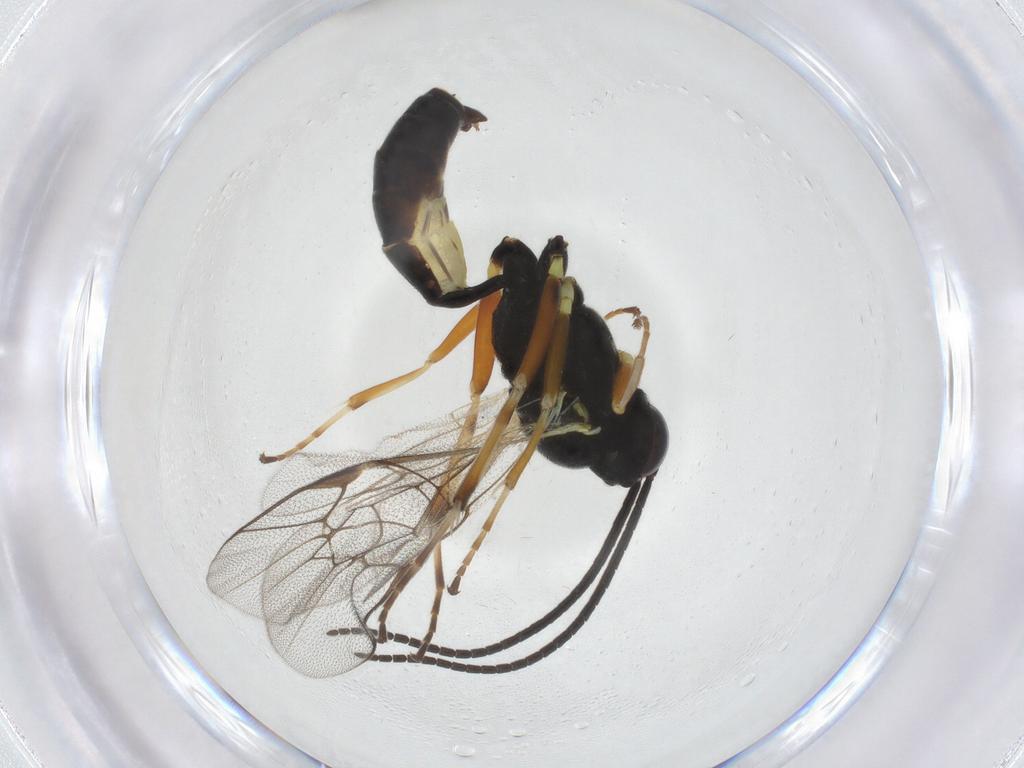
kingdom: Animalia
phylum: Arthropoda
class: Insecta
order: Hymenoptera
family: Ichneumonidae
